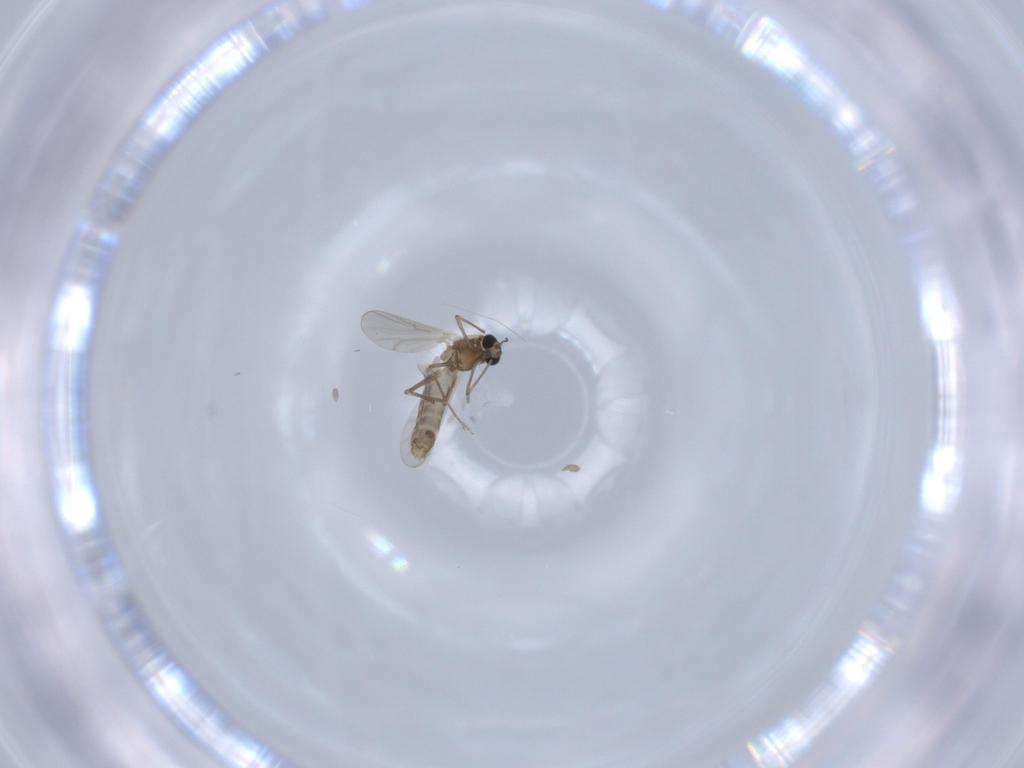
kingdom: Animalia
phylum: Arthropoda
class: Insecta
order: Diptera
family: Chironomidae
